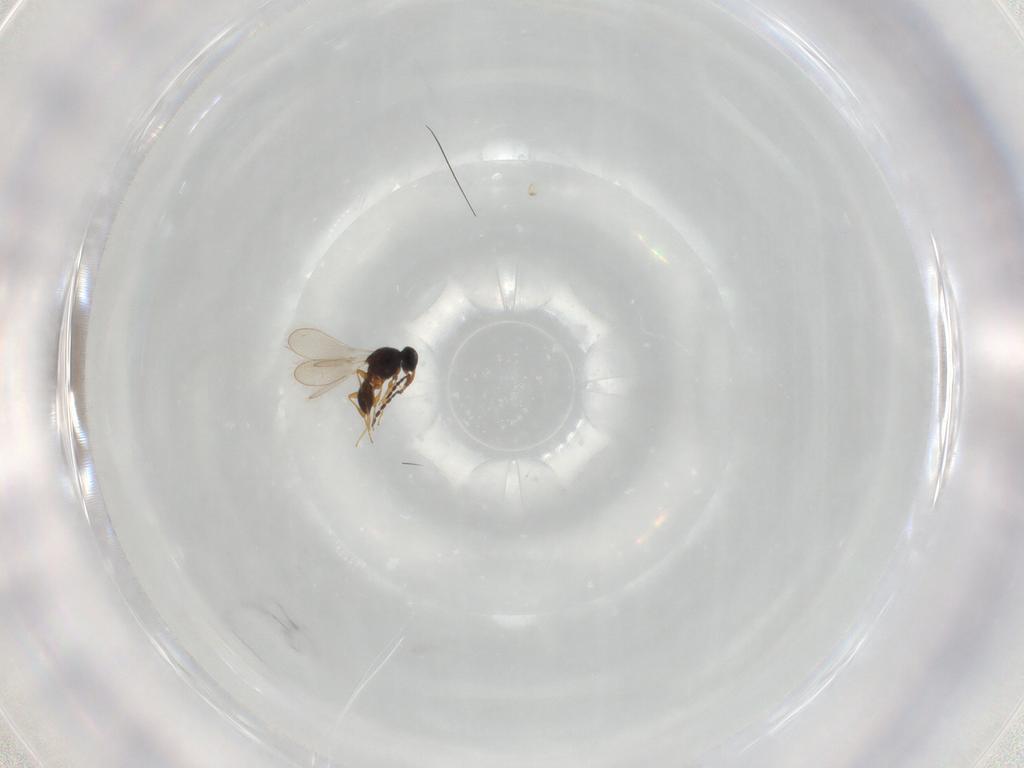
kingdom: Animalia
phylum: Arthropoda
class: Insecta
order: Hymenoptera
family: Platygastridae
